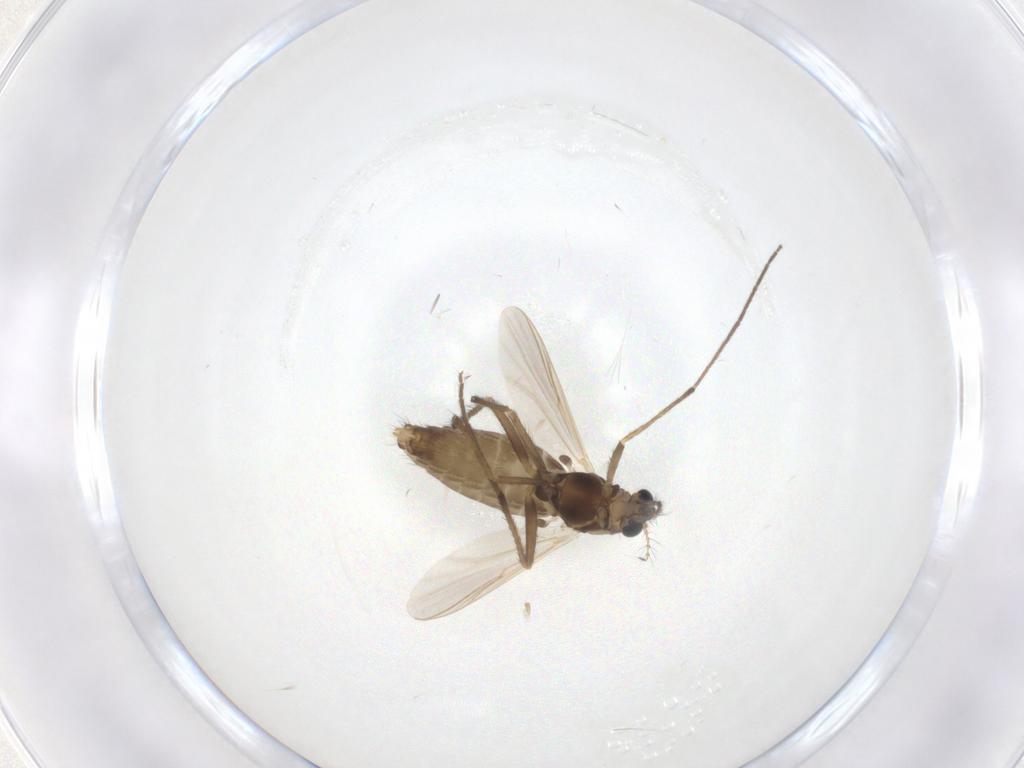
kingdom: Animalia
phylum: Arthropoda
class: Insecta
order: Diptera
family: Chironomidae
